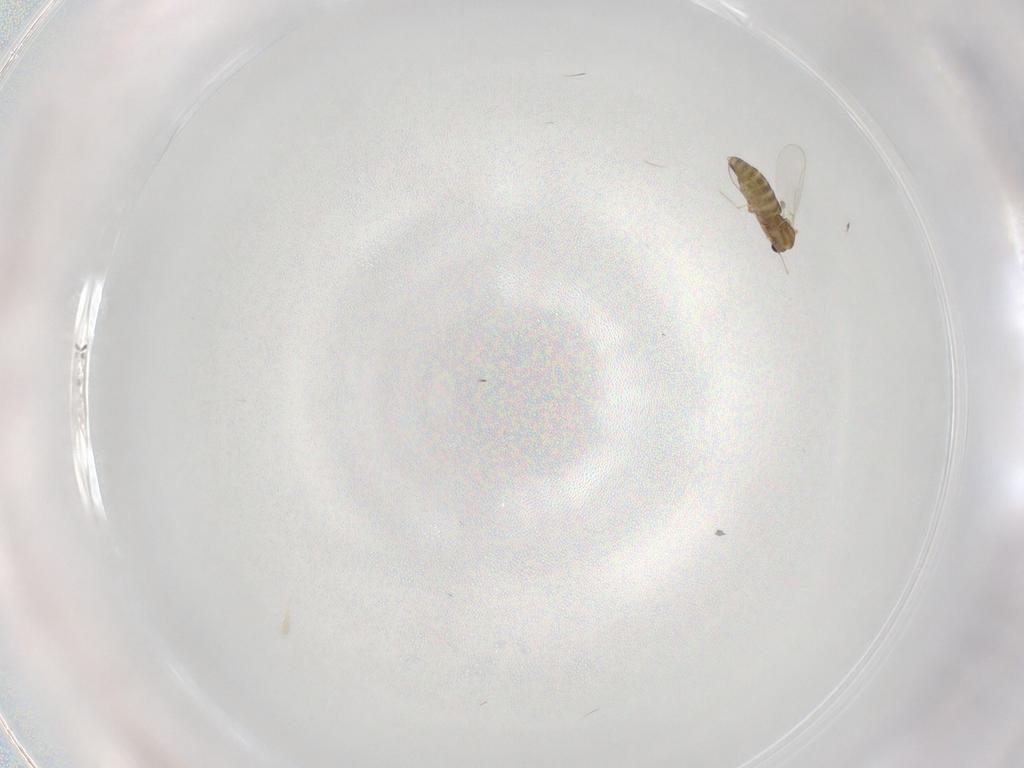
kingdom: Animalia
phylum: Arthropoda
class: Insecta
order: Diptera
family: Chironomidae
